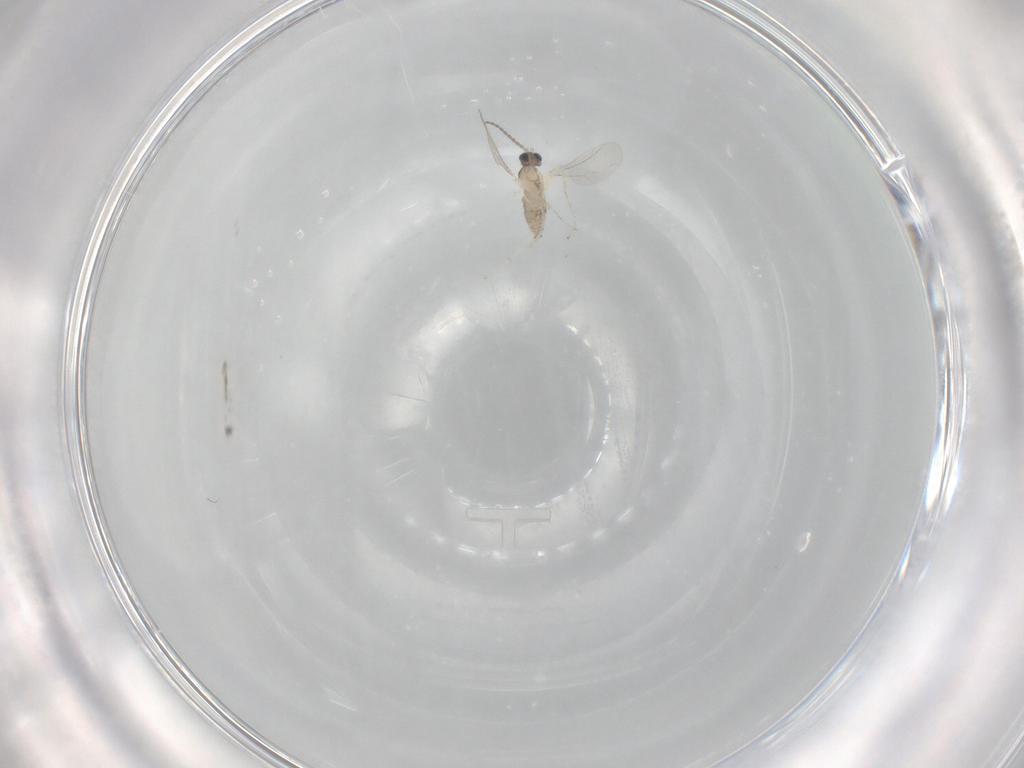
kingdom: Animalia
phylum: Arthropoda
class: Insecta
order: Diptera
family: Cecidomyiidae
